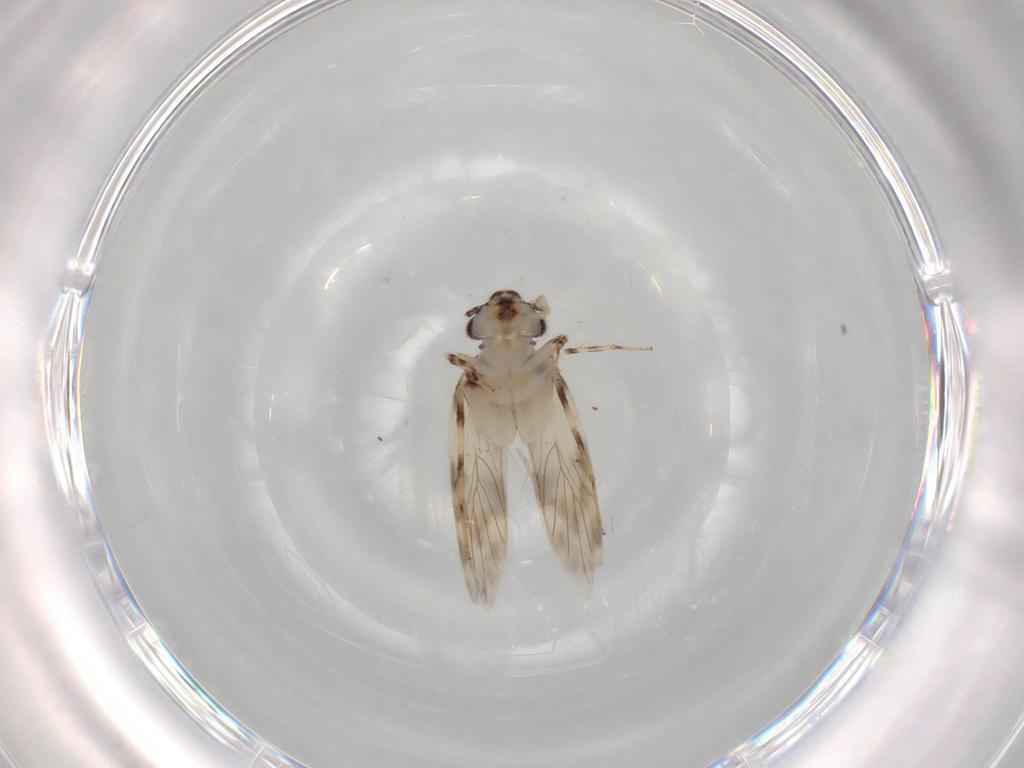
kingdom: Animalia
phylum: Arthropoda
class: Insecta
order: Psocodea
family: Lepidopsocidae
